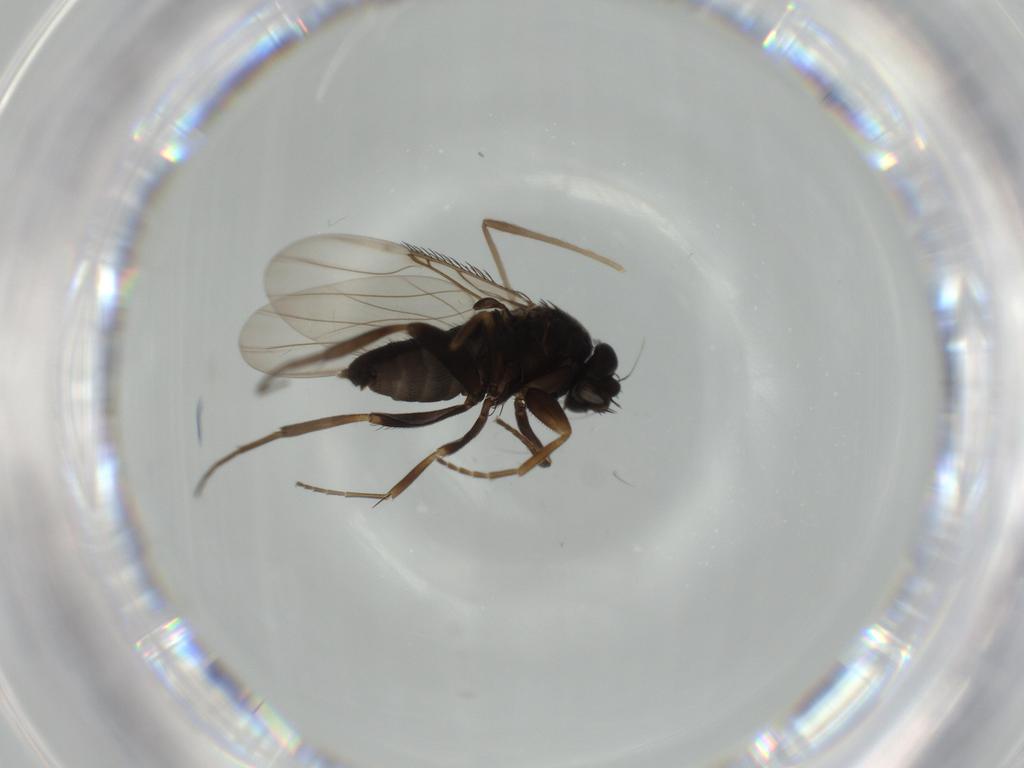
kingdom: Animalia
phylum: Arthropoda
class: Insecta
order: Diptera
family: Phoridae
